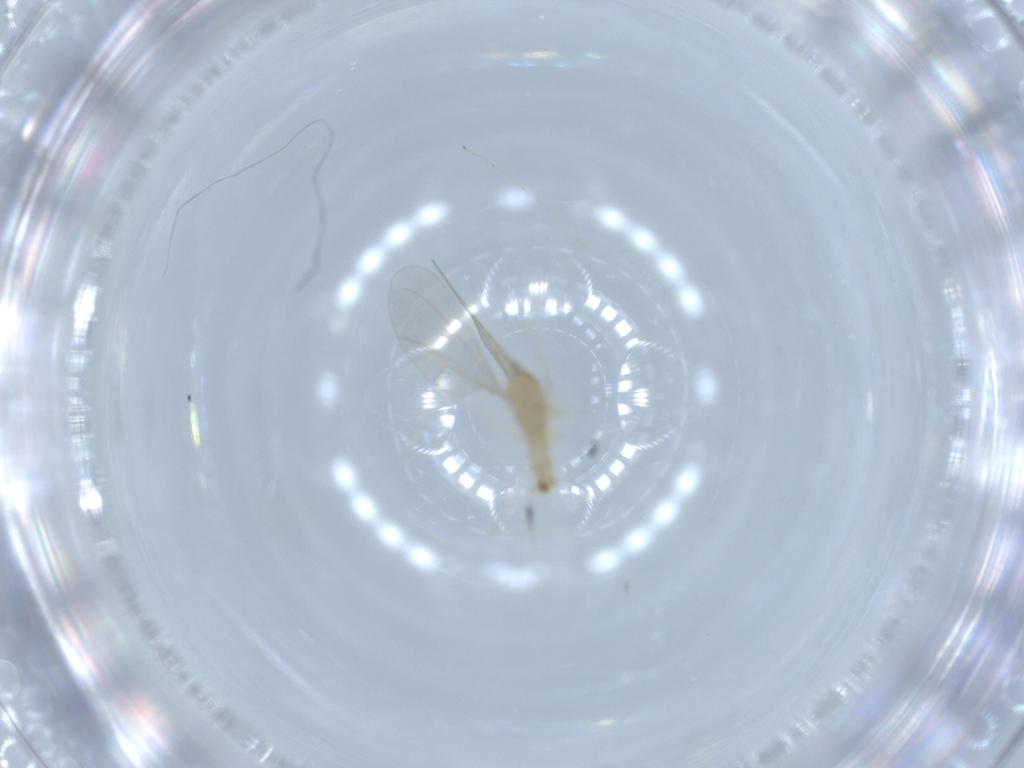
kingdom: Animalia
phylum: Arthropoda
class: Insecta
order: Diptera
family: Cecidomyiidae
